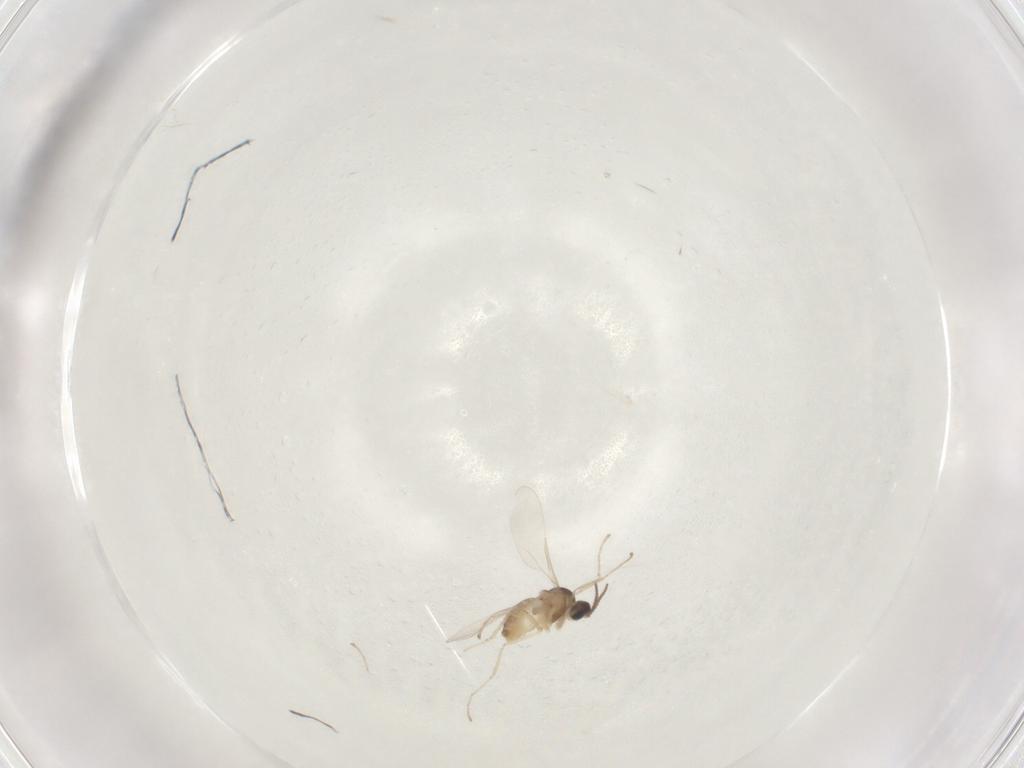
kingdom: Animalia
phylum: Arthropoda
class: Insecta
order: Diptera
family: Cecidomyiidae
